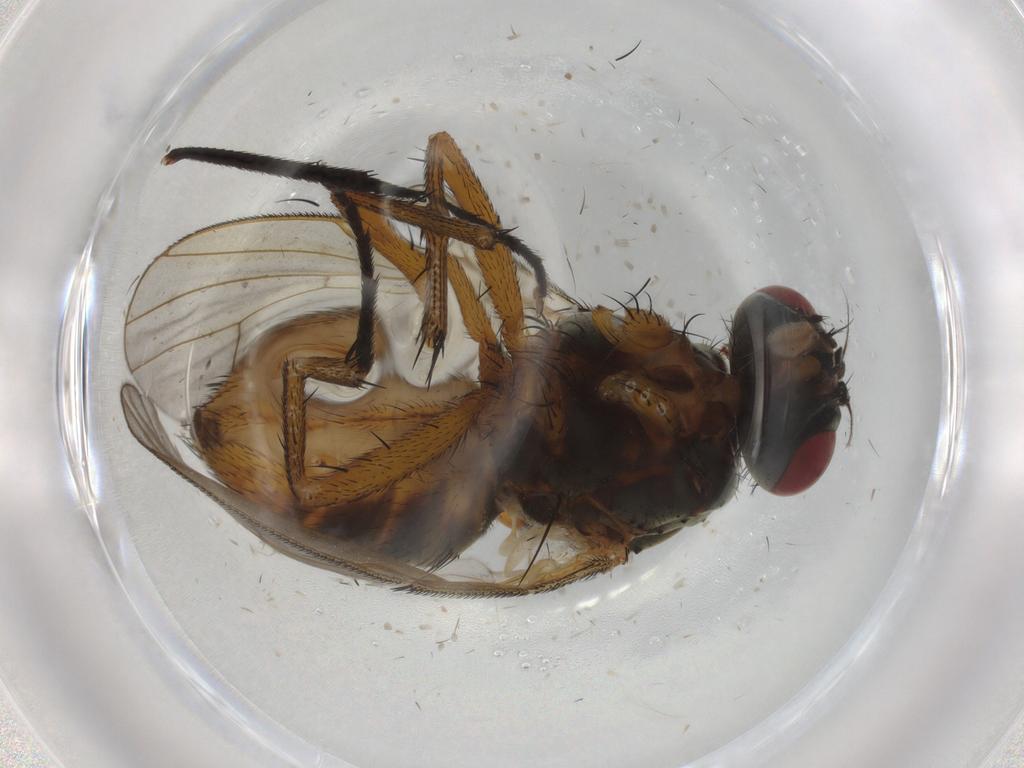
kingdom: Animalia
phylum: Arthropoda
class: Insecta
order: Diptera
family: Muscidae
